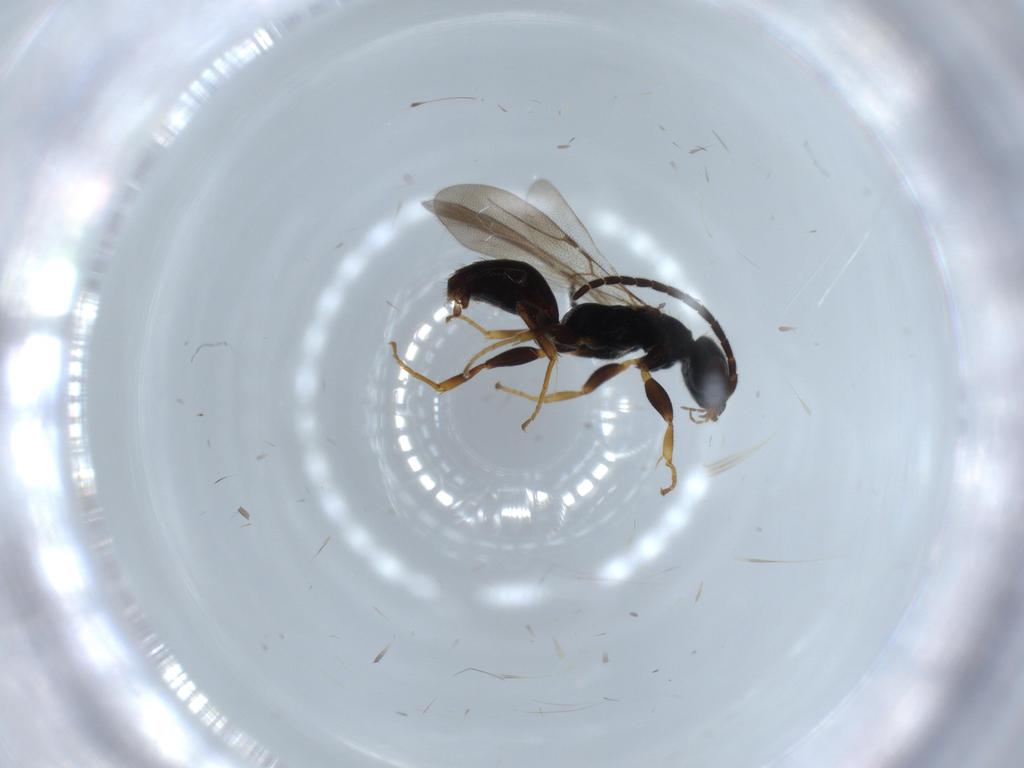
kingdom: Animalia
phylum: Arthropoda
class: Insecta
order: Hymenoptera
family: Bethylidae
